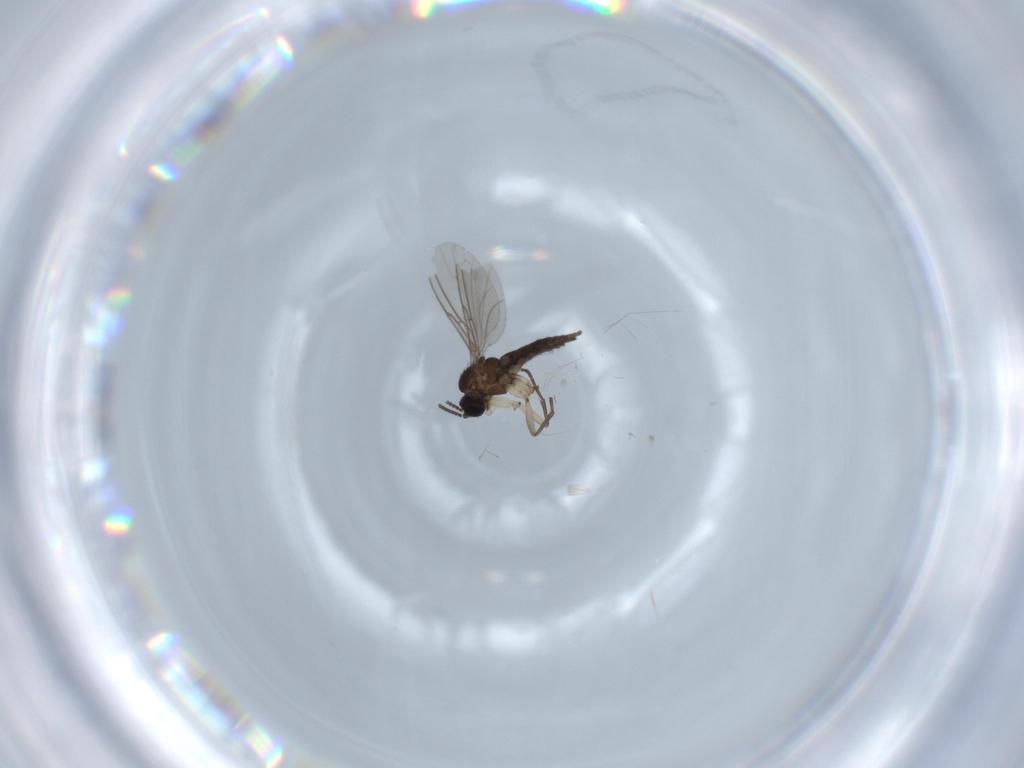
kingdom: Animalia
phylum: Arthropoda
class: Insecta
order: Diptera
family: Sciaridae
